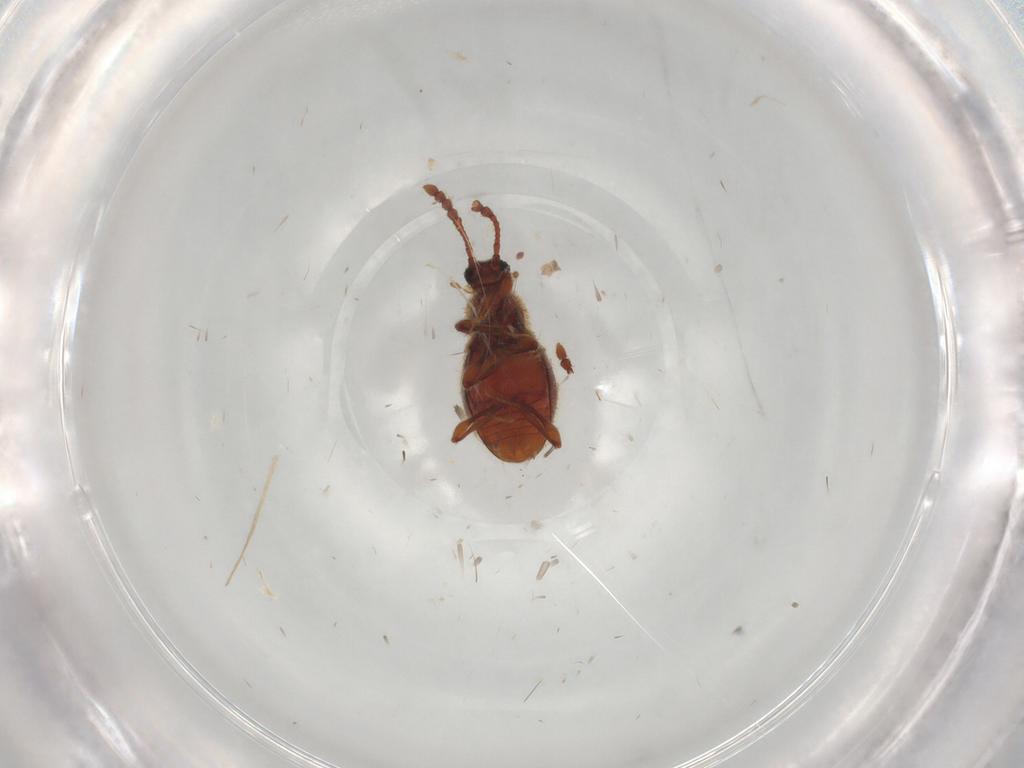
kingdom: Animalia
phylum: Arthropoda
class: Insecta
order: Coleoptera
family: Staphylinidae
